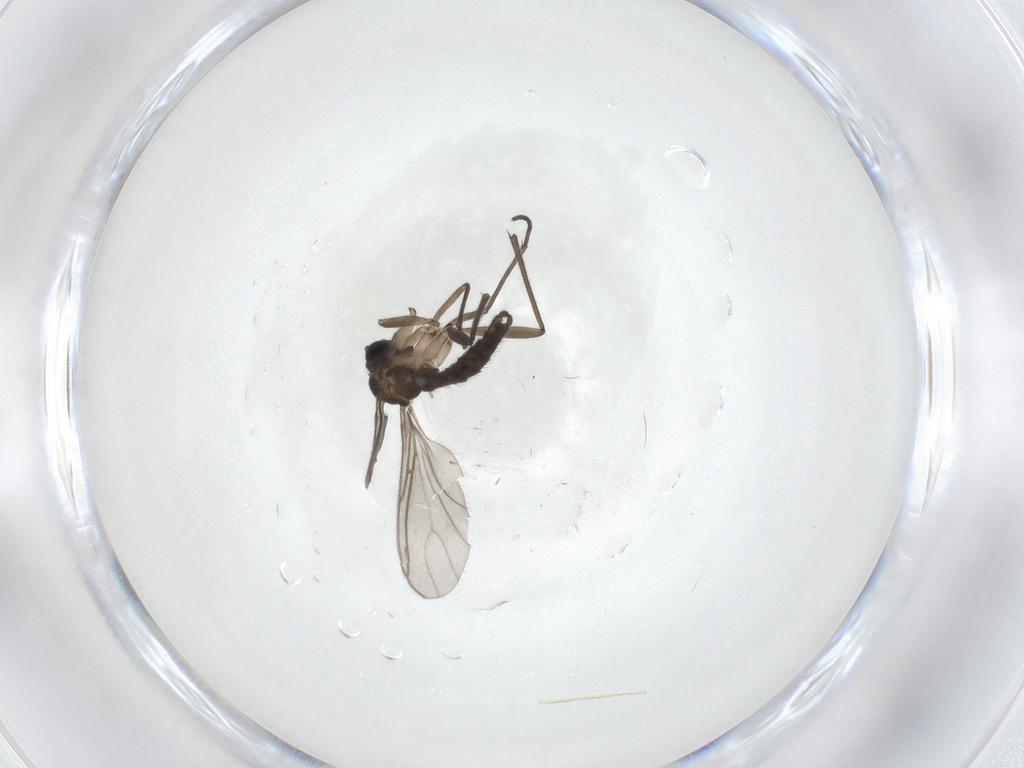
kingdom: Animalia
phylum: Arthropoda
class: Insecta
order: Diptera
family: Sciaridae
